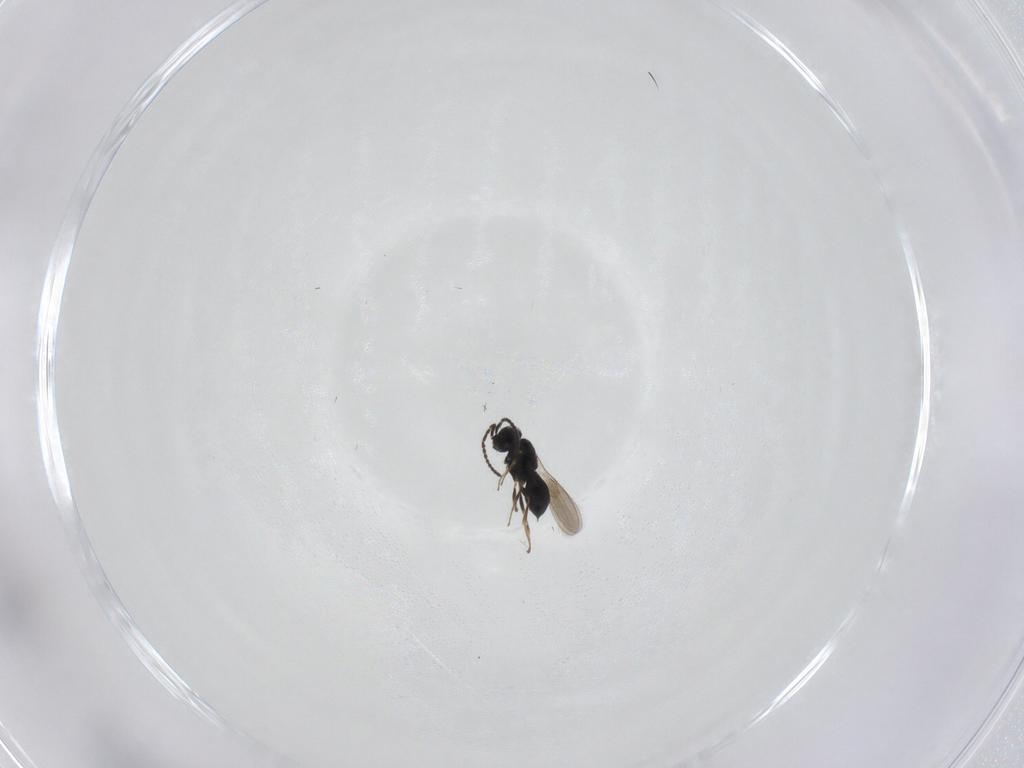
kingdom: Animalia
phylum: Arthropoda
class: Insecta
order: Hymenoptera
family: Scelionidae
